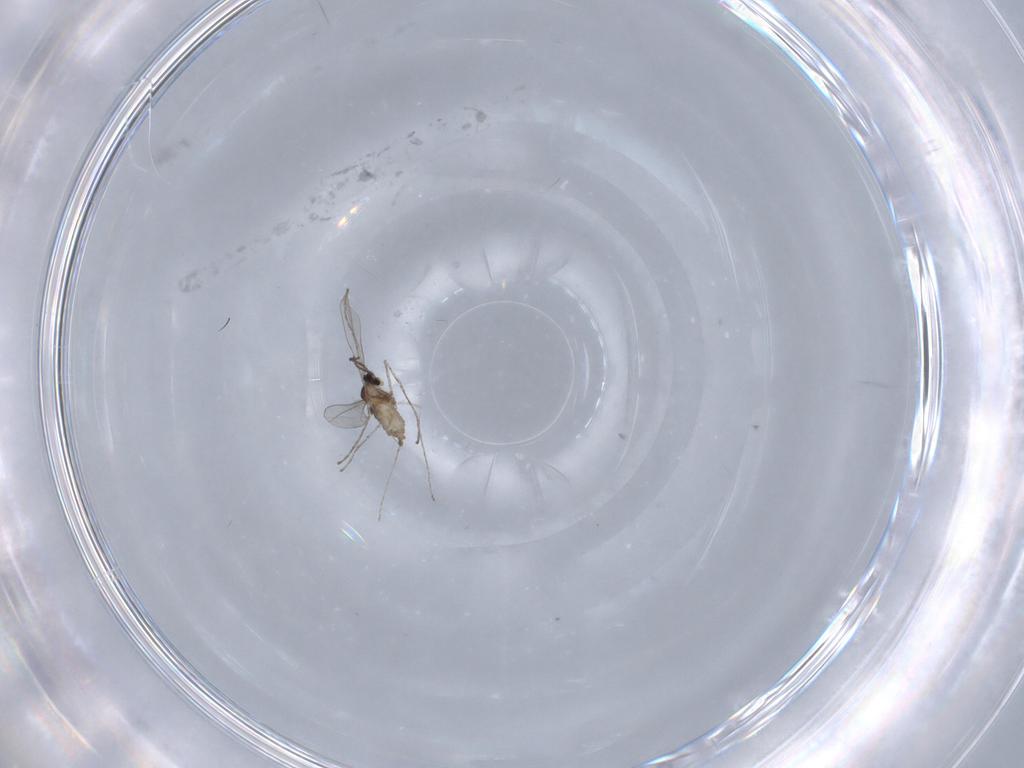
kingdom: Animalia
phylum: Arthropoda
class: Insecta
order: Diptera
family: Cecidomyiidae
